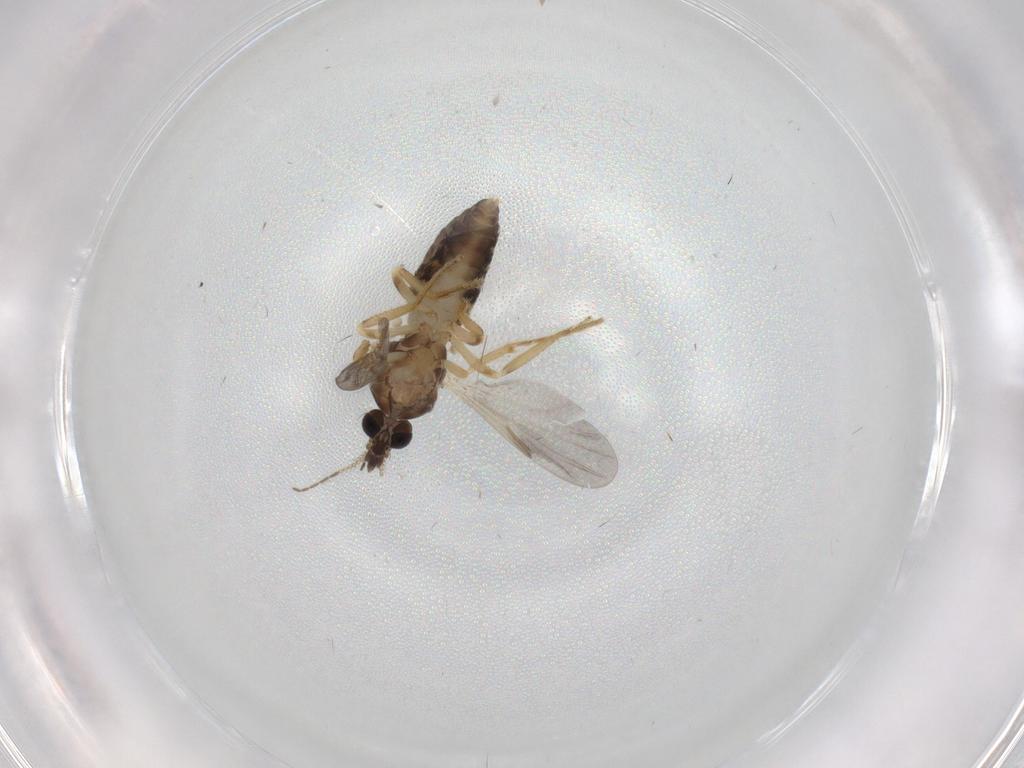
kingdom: Animalia
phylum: Arthropoda
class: Insecta
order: Diptera
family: Ceratopogonidae
